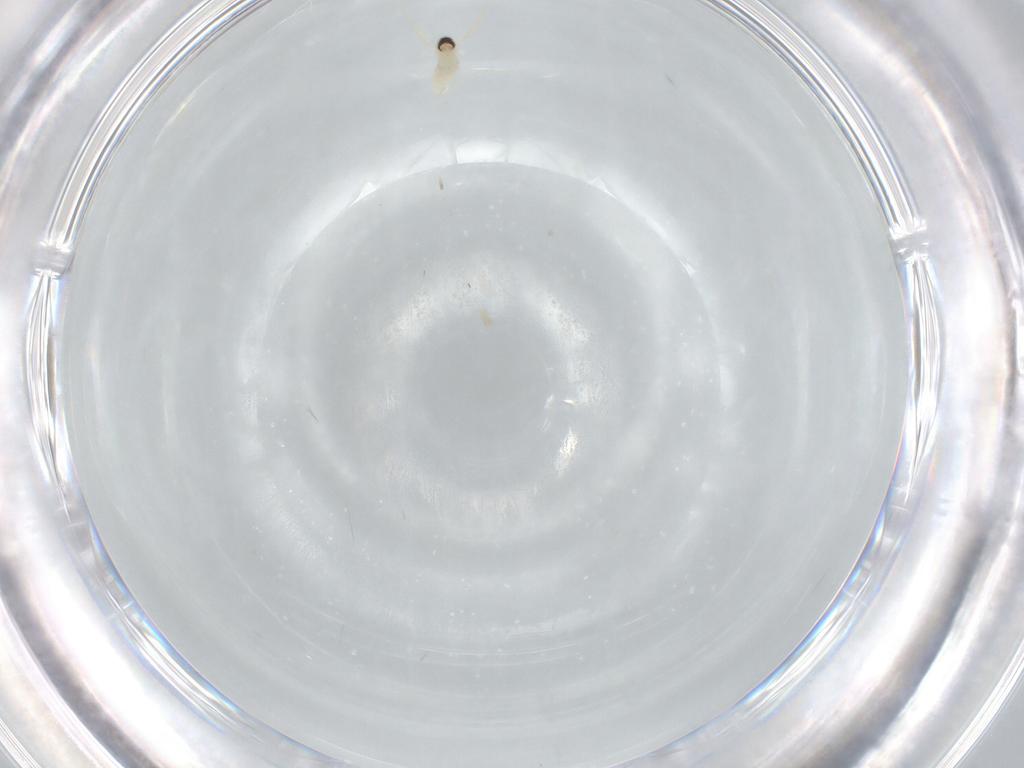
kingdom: Animalia
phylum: Arthropoda
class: Insecta
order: Diptera
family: Cecidomyiidae
